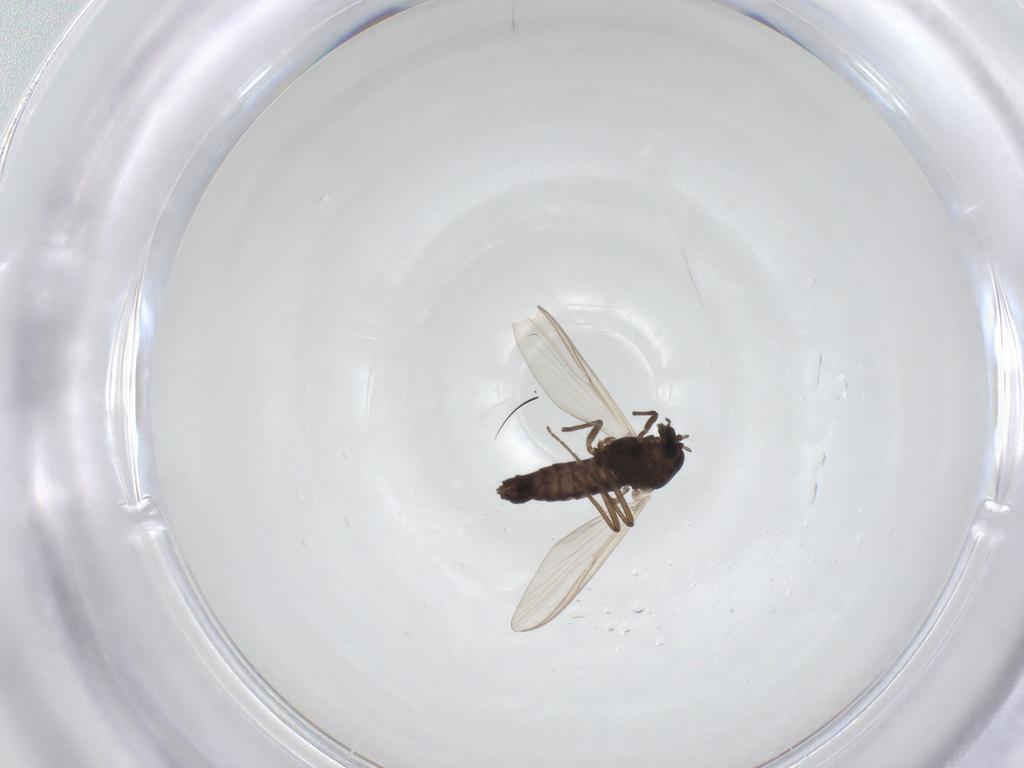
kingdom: Animalia
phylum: Arthropoda
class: Insecta
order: Diptera
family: Chironomidae
